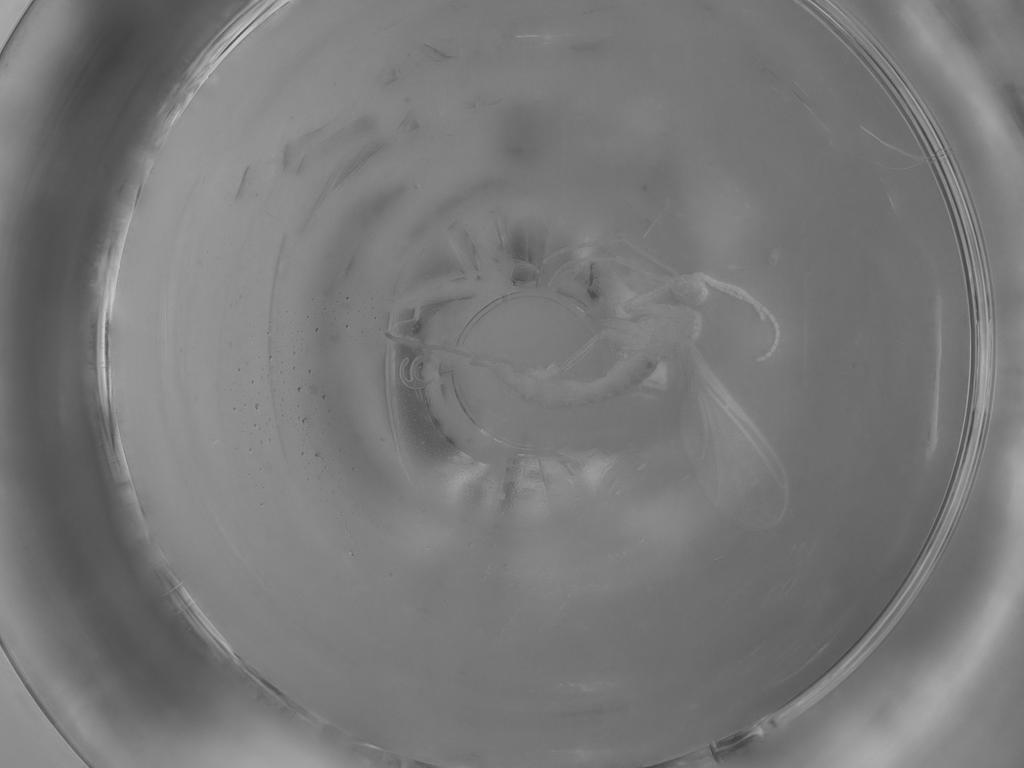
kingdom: Animalia
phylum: Arthropoda
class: Insecta
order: Diptera
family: Sciaridae
